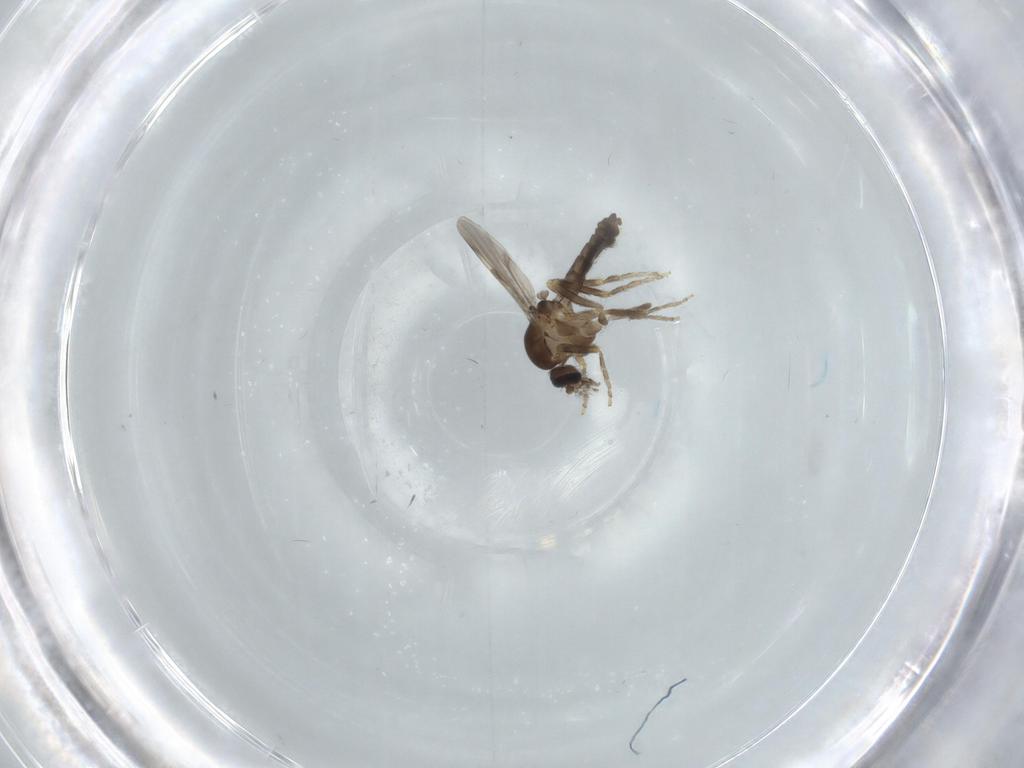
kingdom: Animalia
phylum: Arthropoda
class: Insecta
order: Diptera
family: Ceratopogonidae
